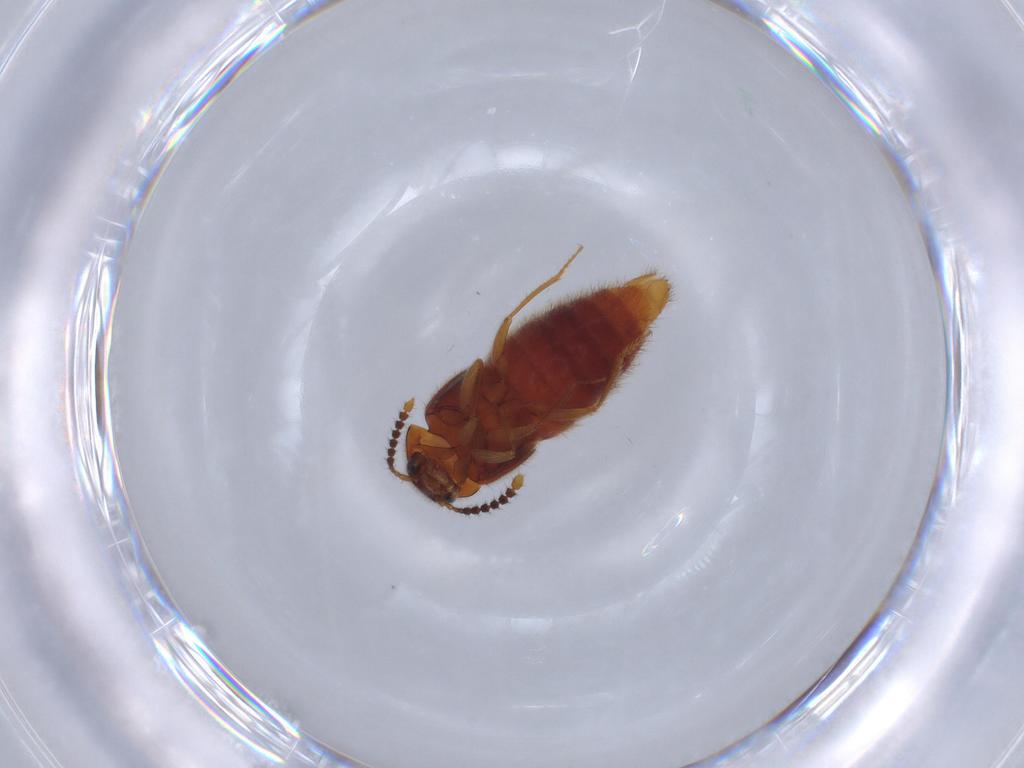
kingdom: Animalia
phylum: Arthropoda
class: Insecta
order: Coleoptera
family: Staphylinidae
